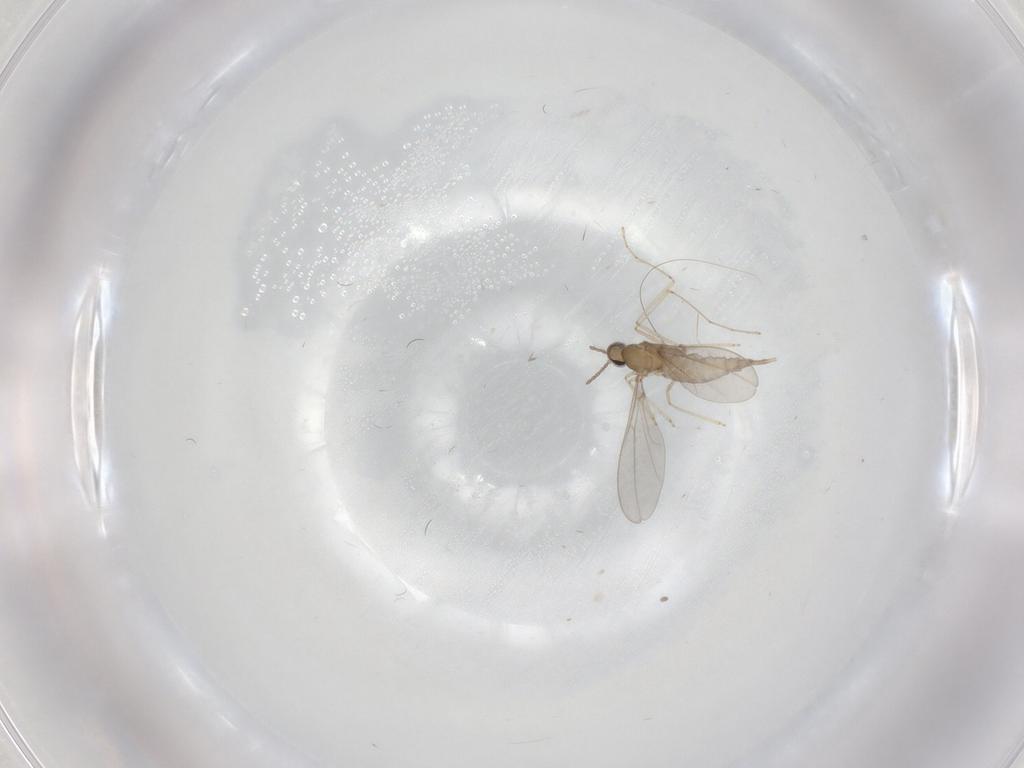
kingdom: Animalia
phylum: Arthropoda
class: Insecta
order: Diptera
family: Cecidomyiidae
